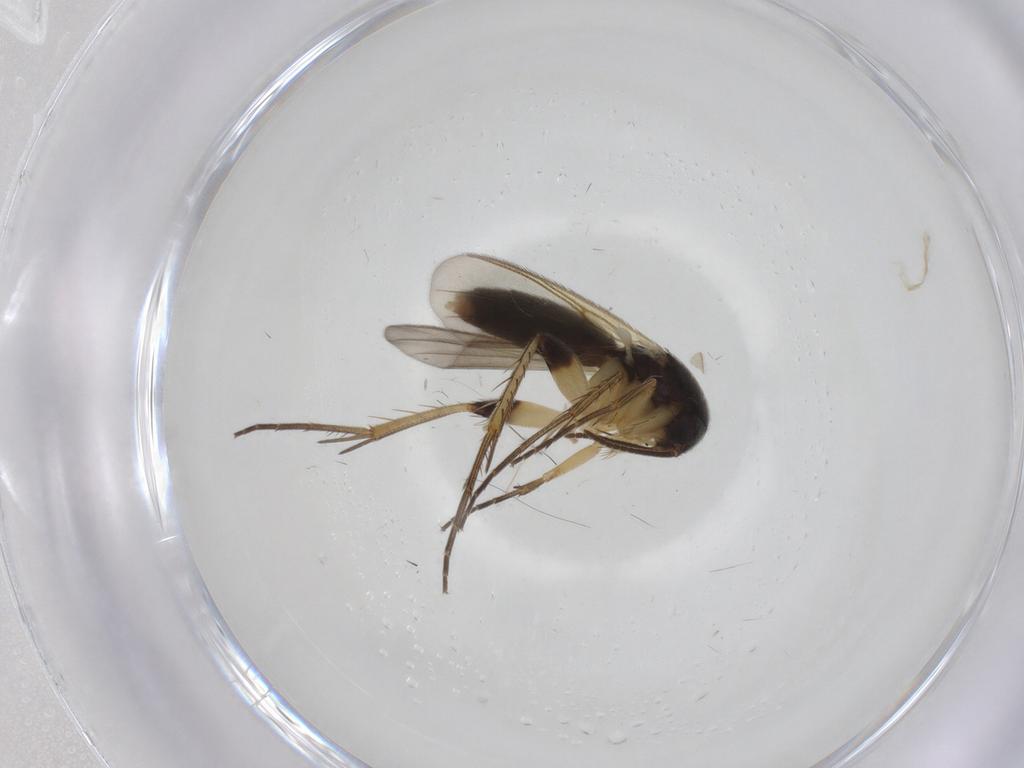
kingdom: Animalia
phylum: Arthropoda
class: Insecta
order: Diptera
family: Mycetophilidae
